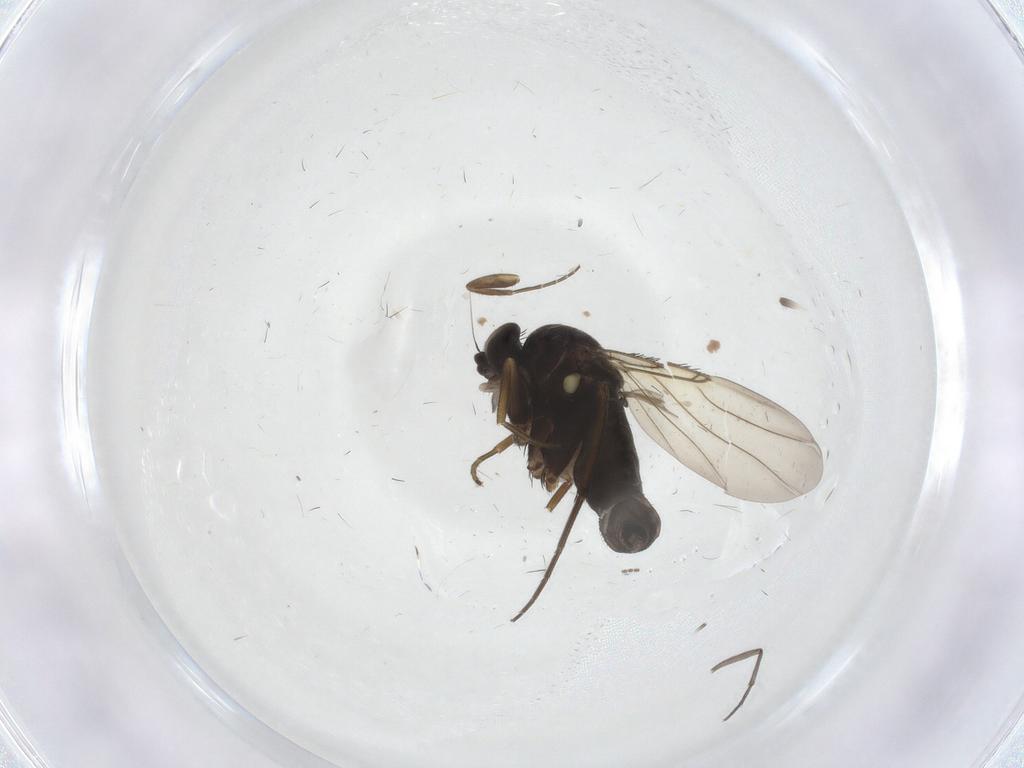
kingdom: Animalia
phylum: Arthropoda
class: Insecta
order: Diptera
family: Phoridae
